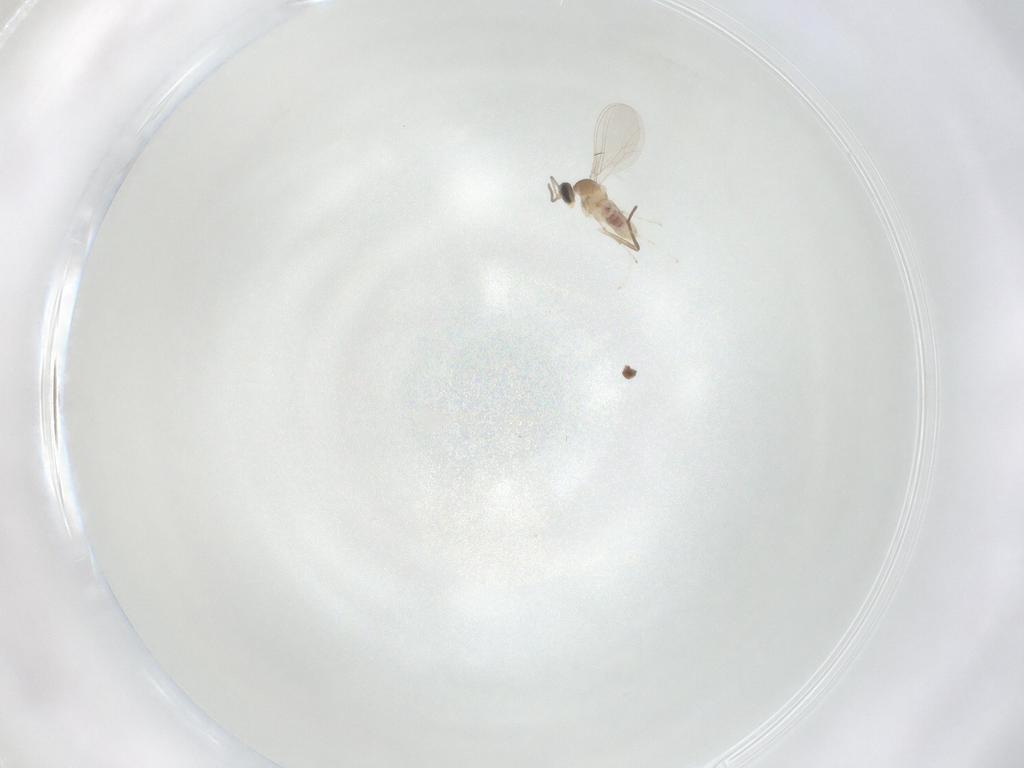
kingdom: Animalia
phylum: Arthropoda
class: Insecta
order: Diptera
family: Cecidomyiidae
